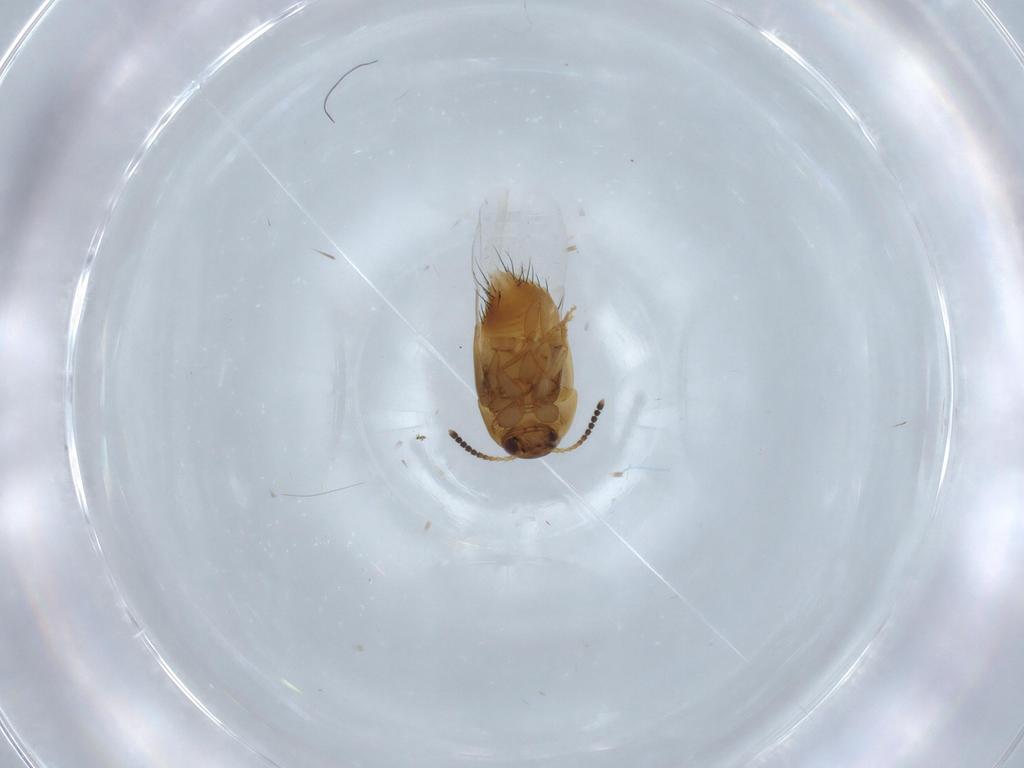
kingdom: Animalia
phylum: Arthropoda
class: Insecta
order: Coleoptera
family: Staphylinidae
